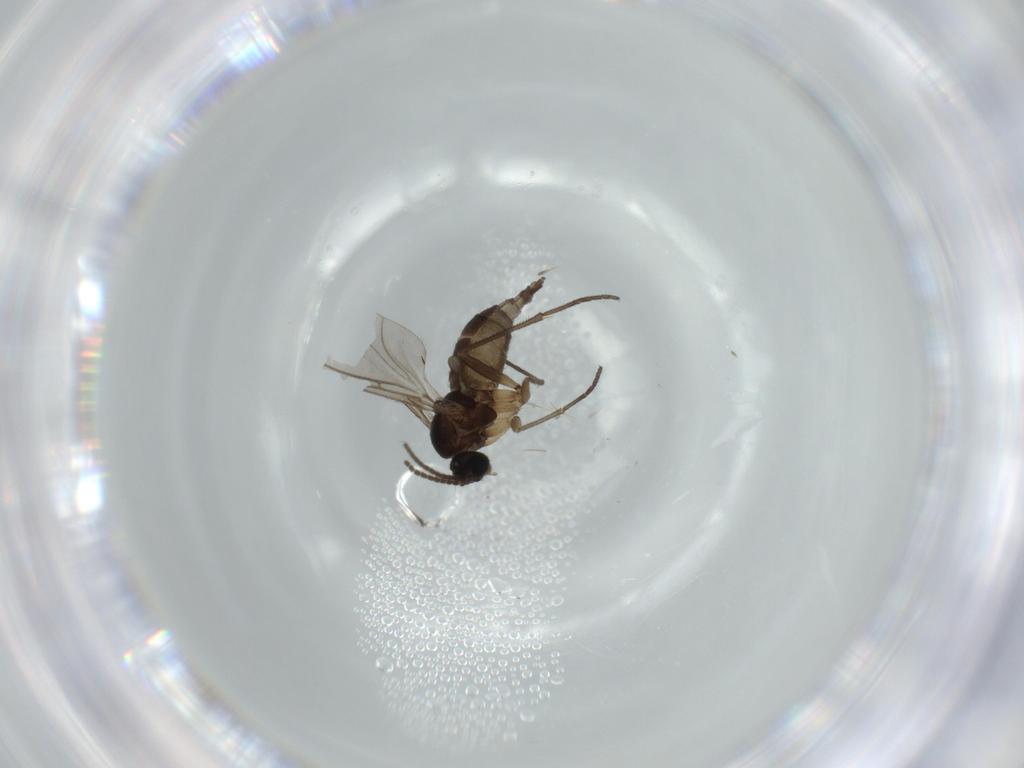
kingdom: Animalia
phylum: Arthropoda
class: Insecta
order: Diptera
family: Sciaridae
